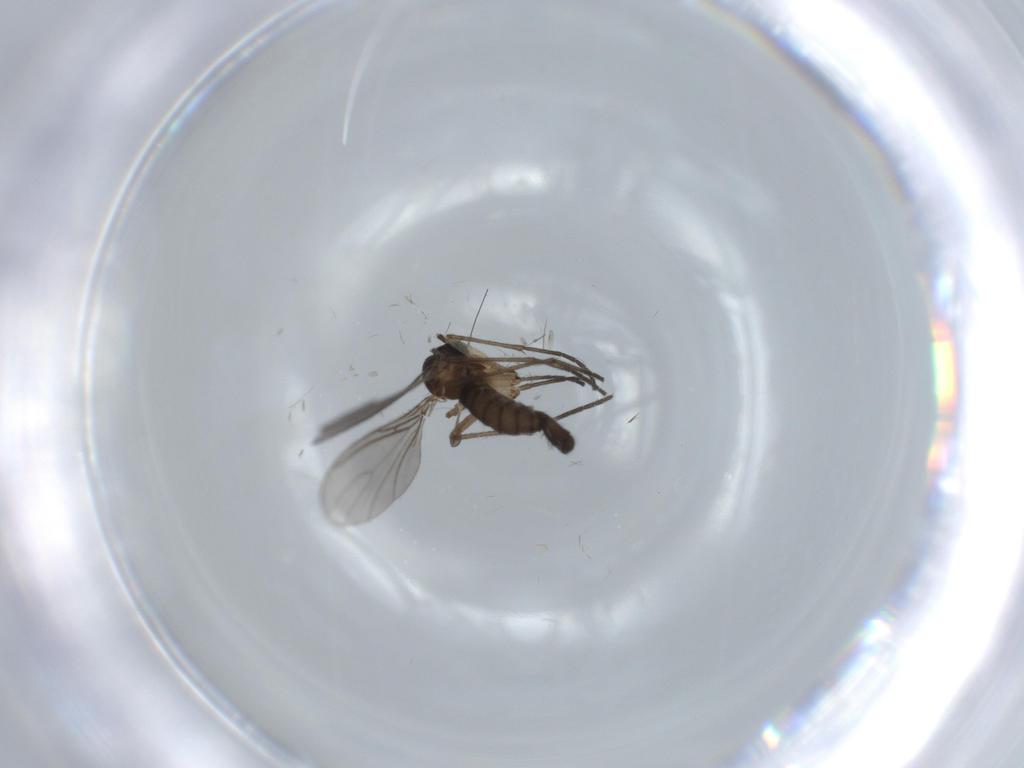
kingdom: Animalia
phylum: Arthropoda
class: Insecta
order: Diptera
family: Sciaridae
